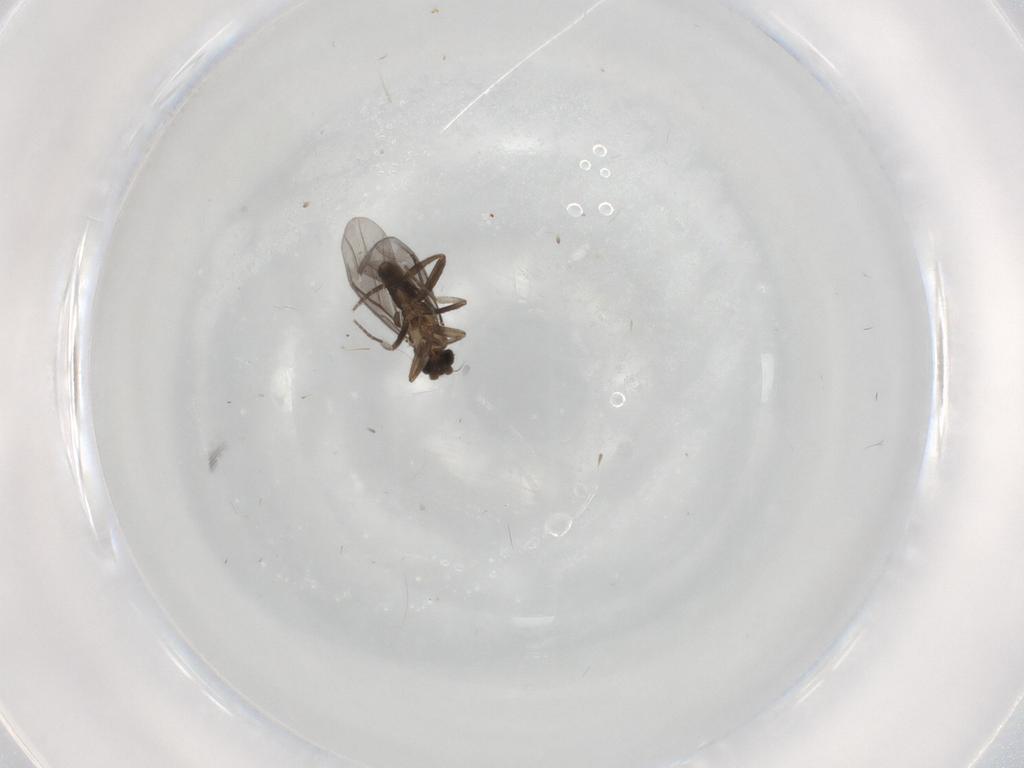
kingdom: Animalia
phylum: Arthropoda
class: Insecta
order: Diptera
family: Phoridae
